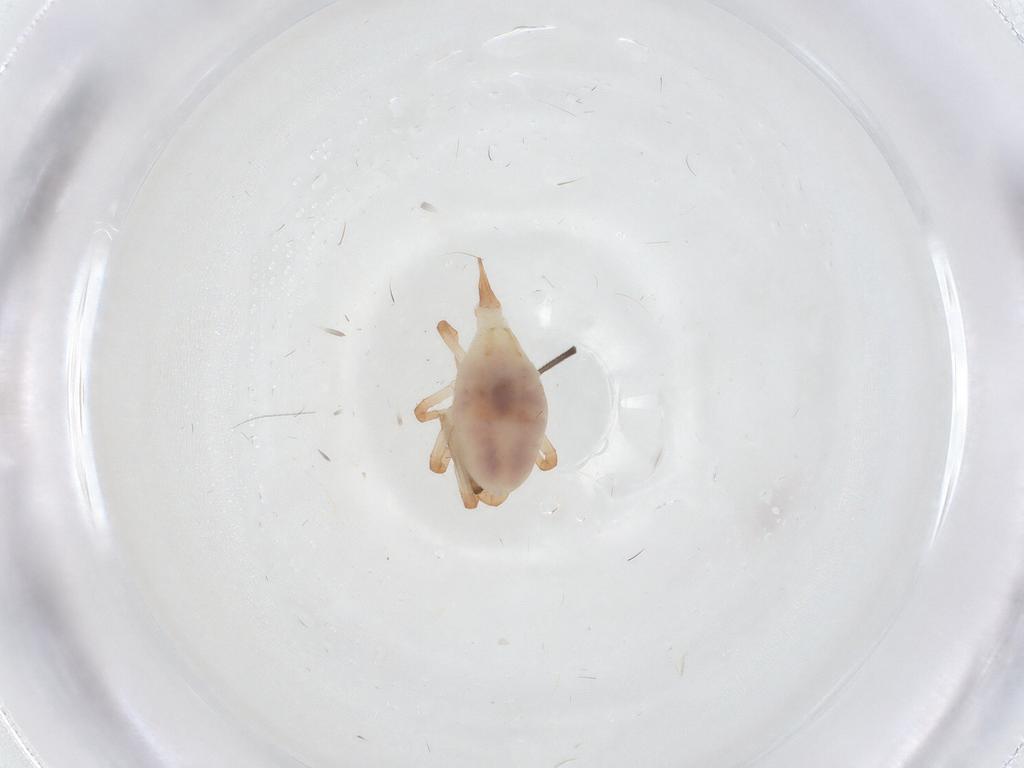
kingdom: Animalia
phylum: Arthropoda
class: Arachnida
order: Trombidiformes
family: Bdellidae
